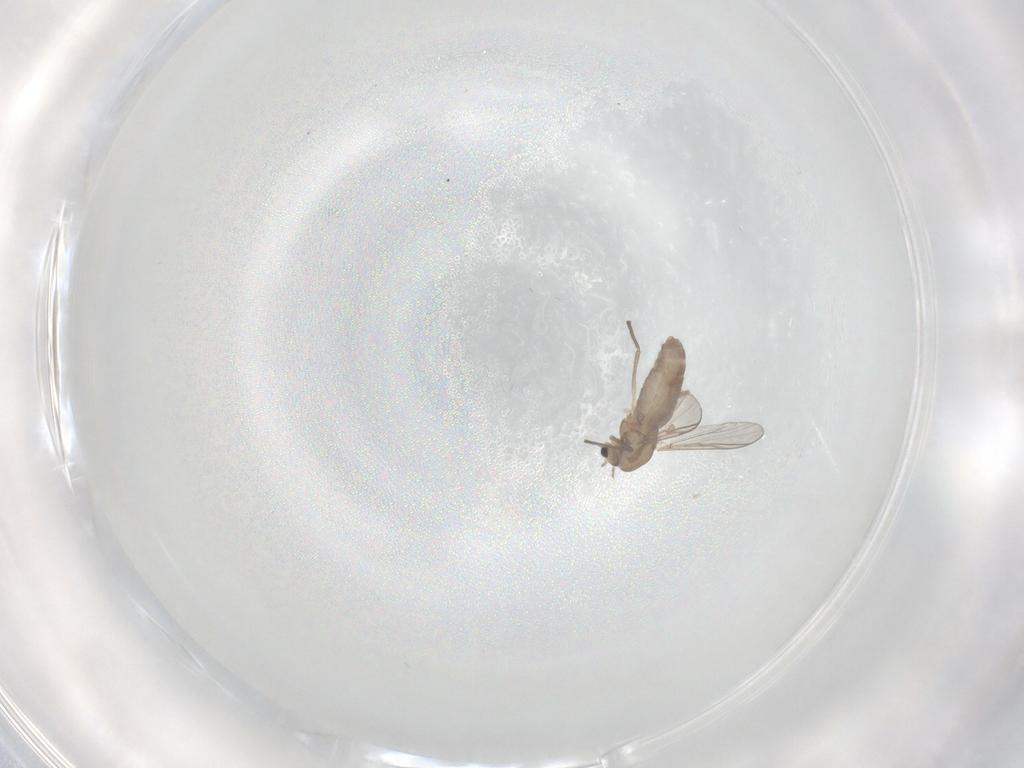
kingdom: Animalia
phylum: Arthropoda
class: Insecta
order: Diptera
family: Chironomidae
